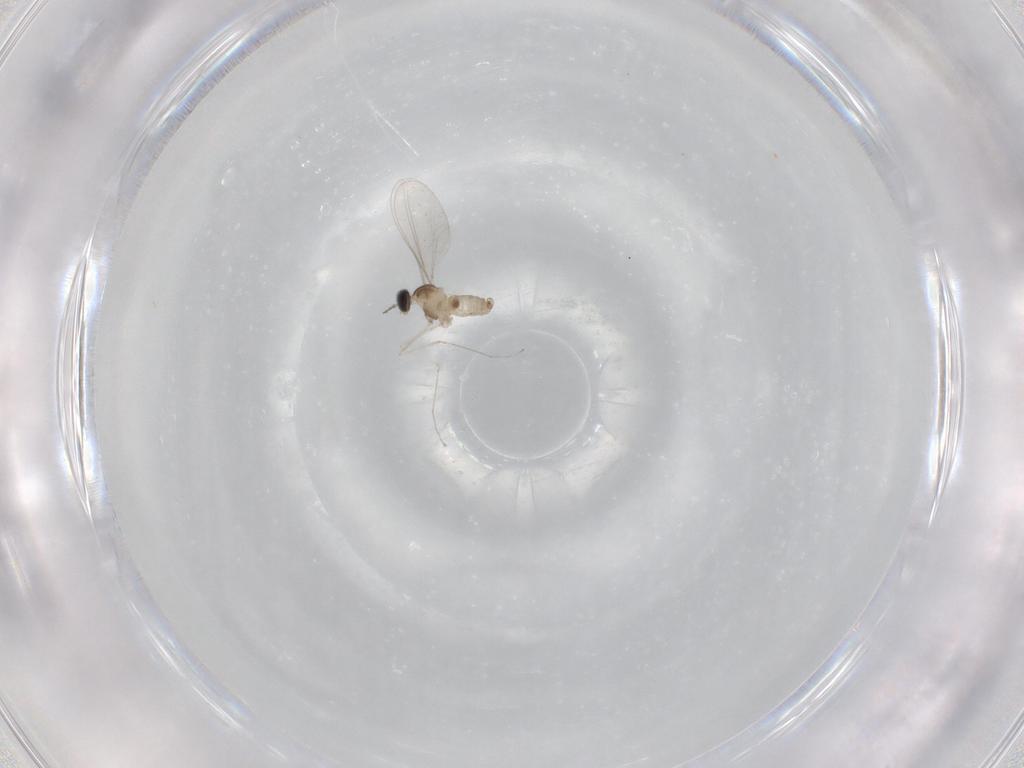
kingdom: Animalia
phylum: Arthropoda
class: Insecta
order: Diptera
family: Cecidomyiidae
